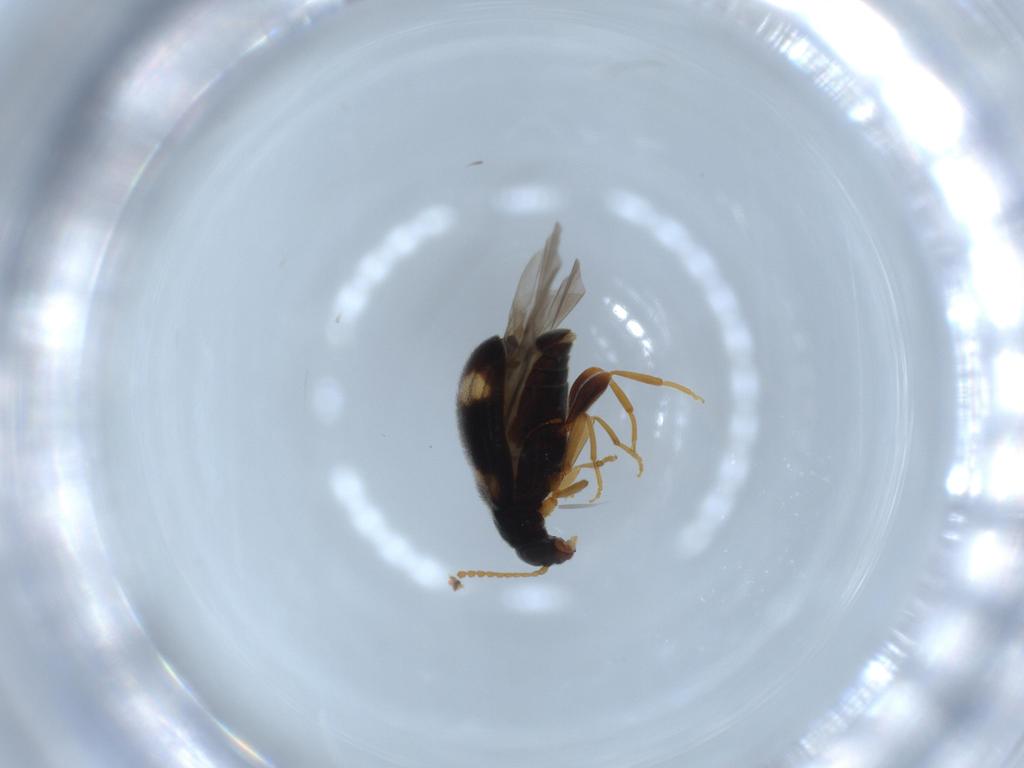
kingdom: Animalia
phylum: Arthropoda
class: Insecta
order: Coleoptera
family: Aderidae
